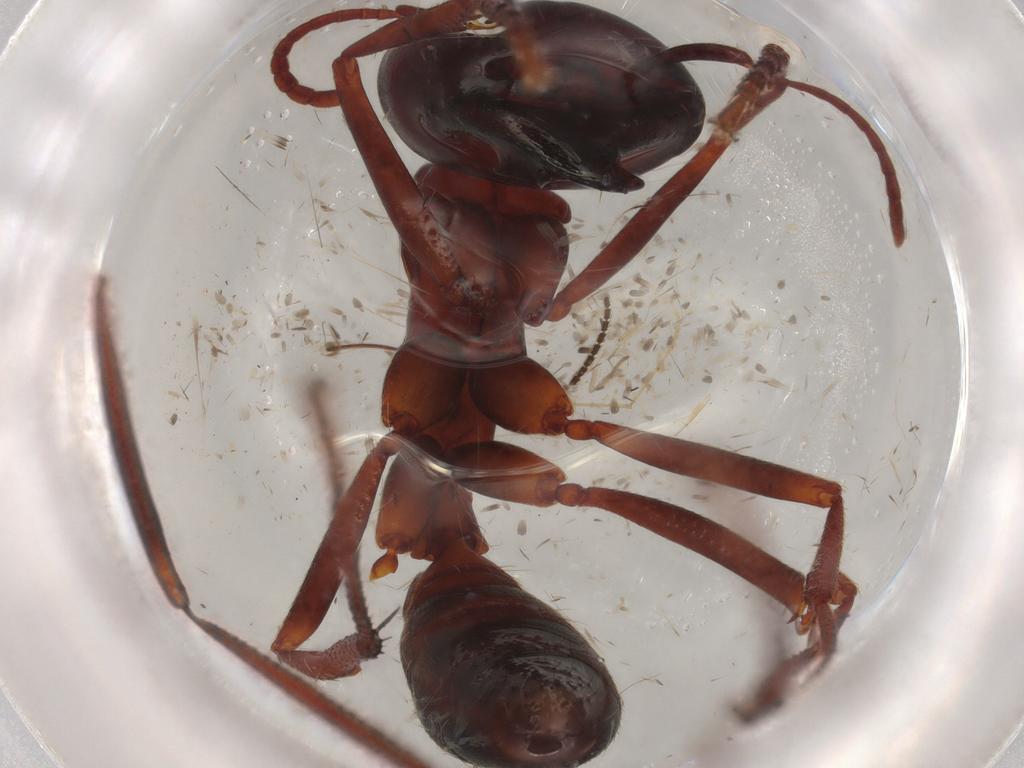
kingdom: Animalia
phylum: Arthropoda
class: Insecta
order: Hymenoptera
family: Formicidae
